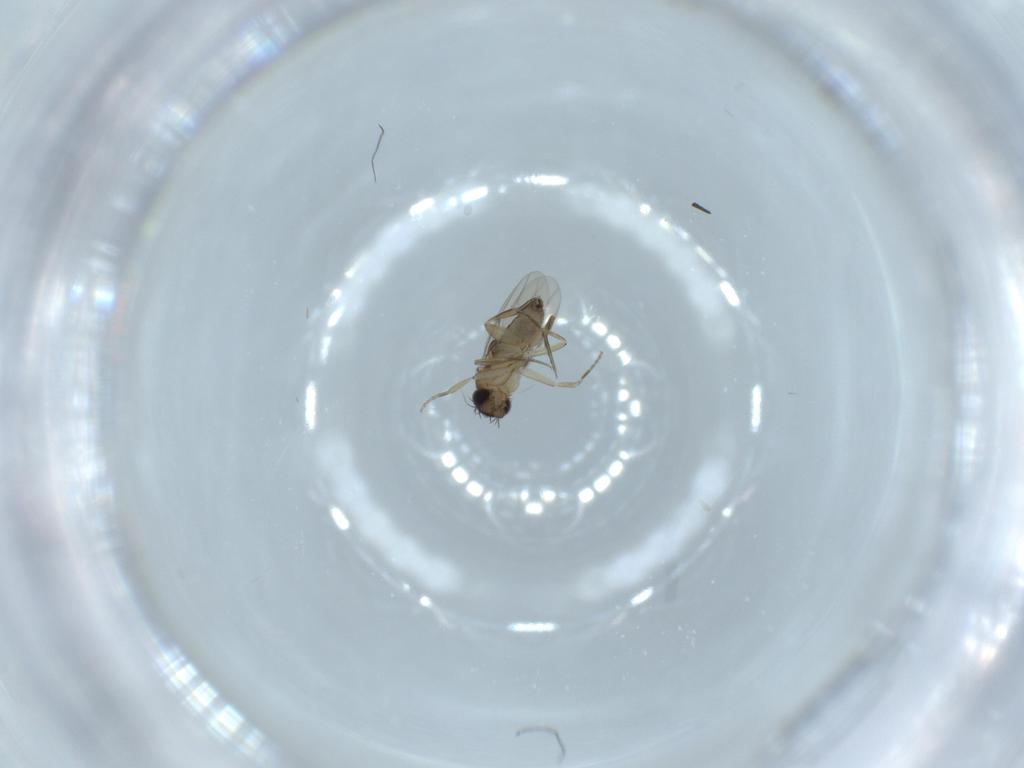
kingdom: Animalia
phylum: Arthropoda
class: Insecta
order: Diptera
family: Phoridae
